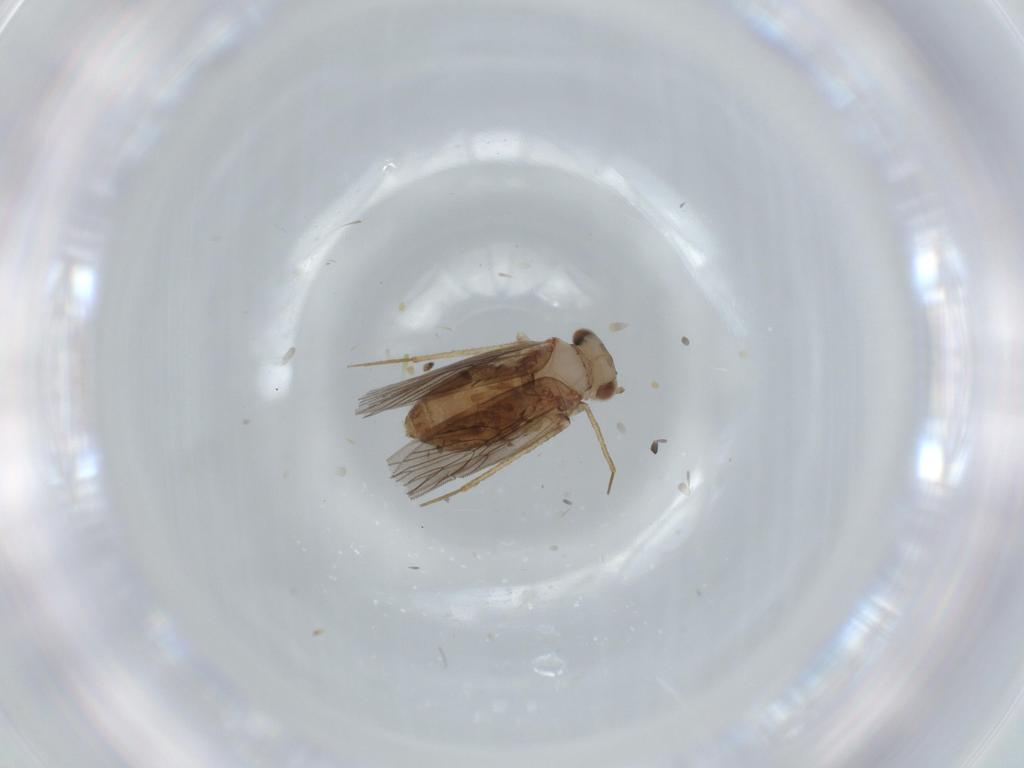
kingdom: Animalia
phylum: Arthropoda
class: Insecta
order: Psocodea
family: Lepidopsocidae
